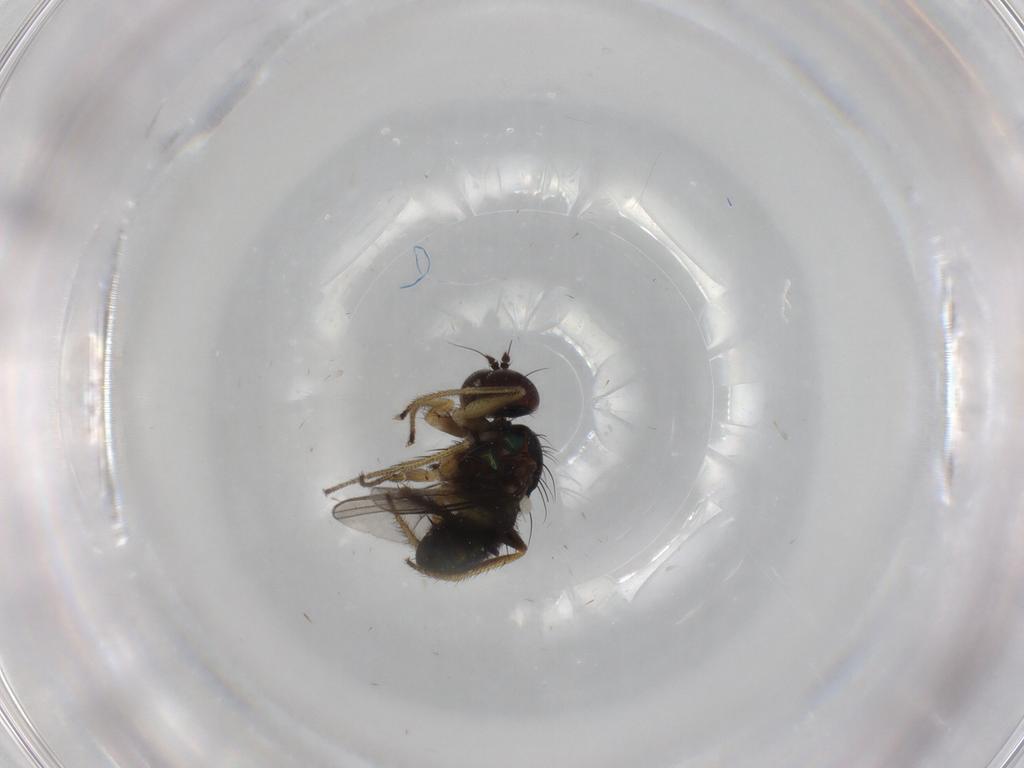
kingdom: Animalia
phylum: Arthropoda
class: Insecta
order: Diptera
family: Dolichopodidae
